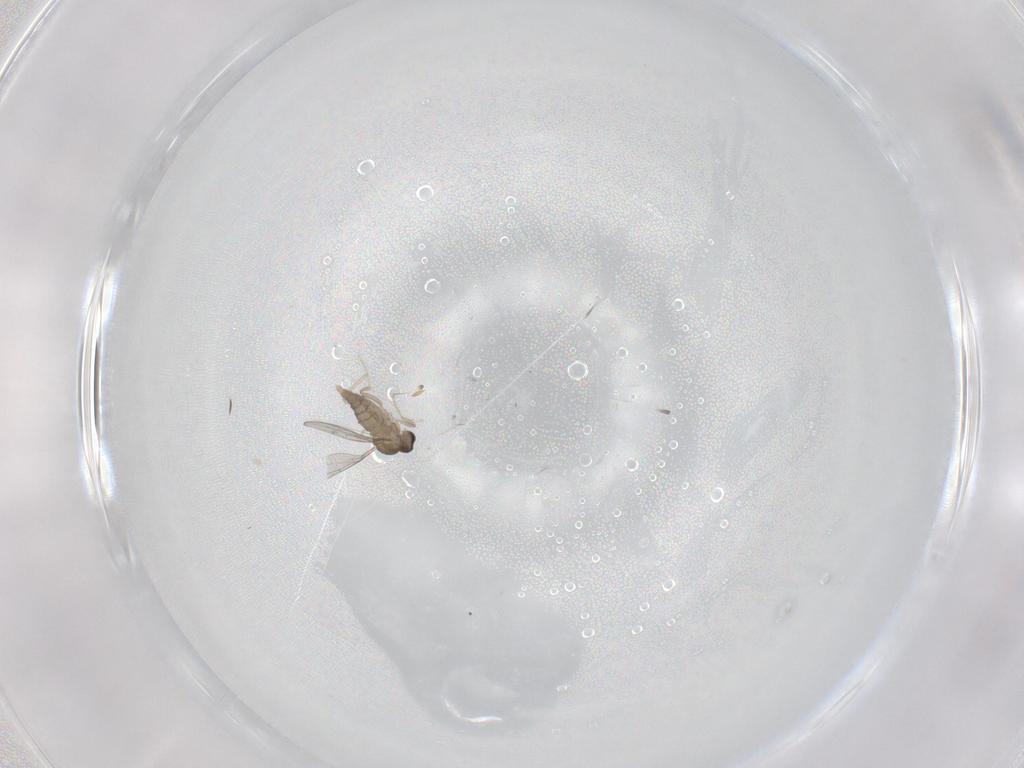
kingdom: Animalia
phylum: Arthropoda
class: Insecta
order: Diptera
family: Cecidomyiidae
